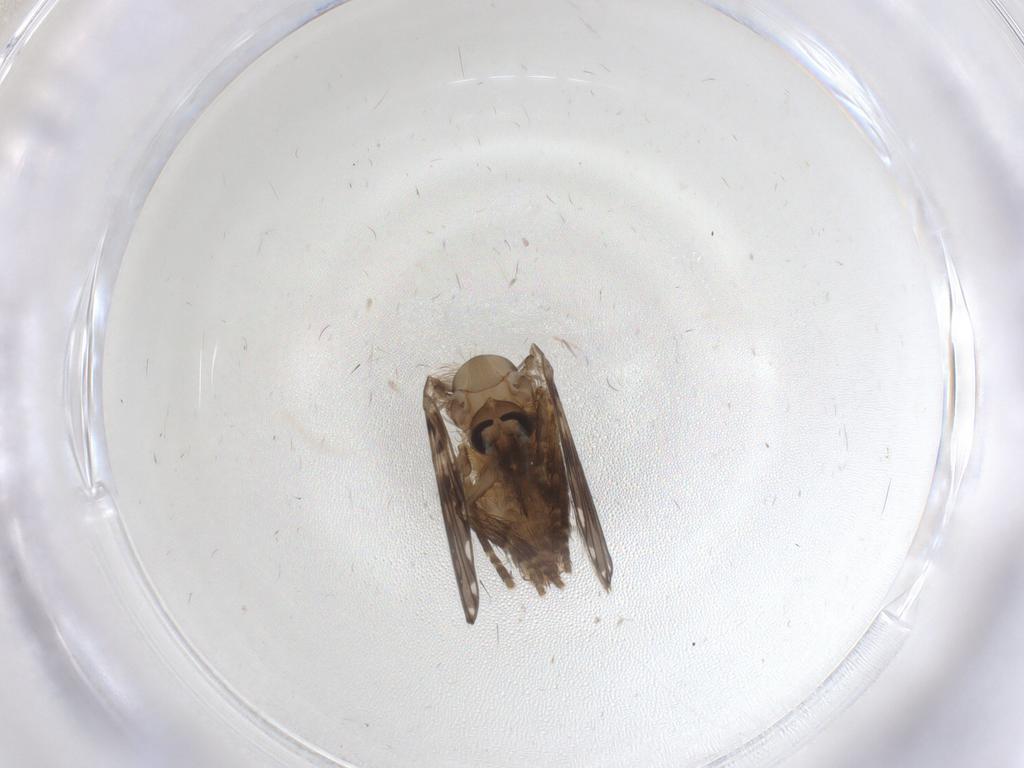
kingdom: Animalia
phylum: Arthropoda
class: Insecta
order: Diptera
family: Psychodidae
